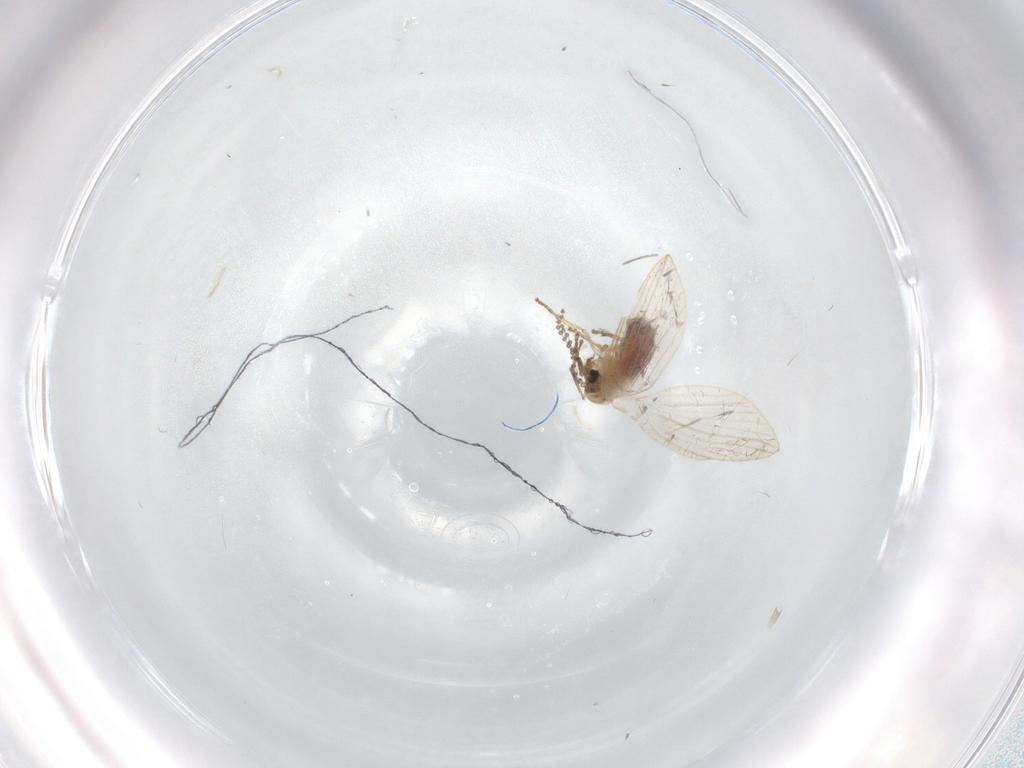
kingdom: Animalia
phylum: Arthropoda
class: Insecta
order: Diptera
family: Phoridae
